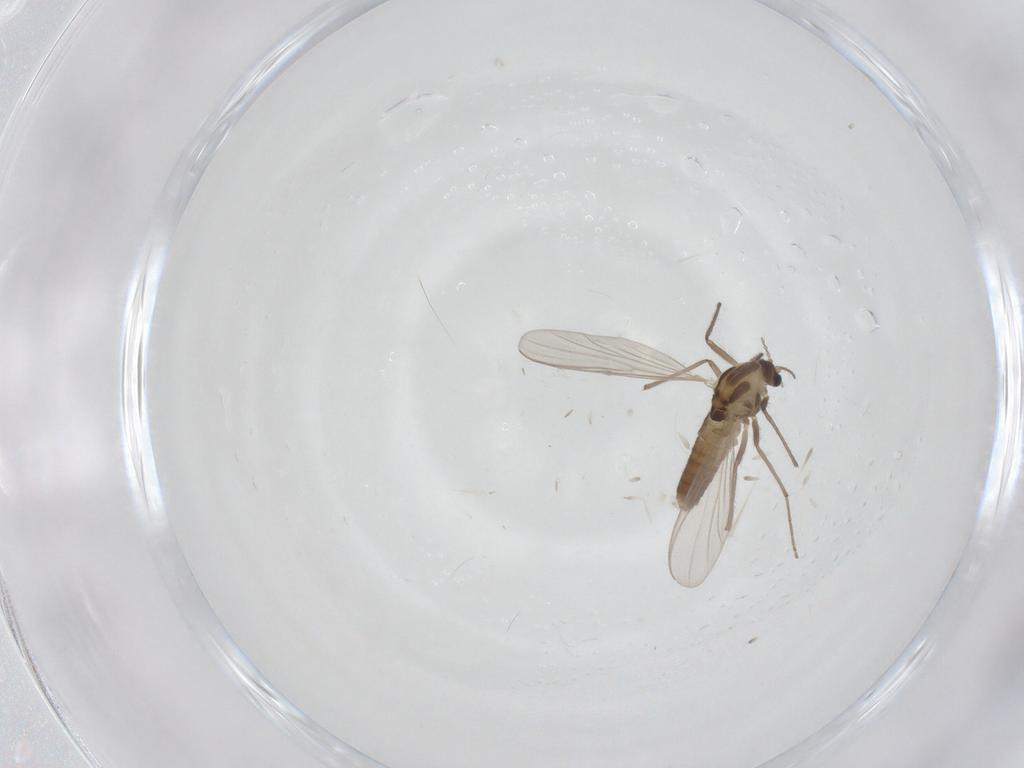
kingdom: Animalia
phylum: Arthropoda
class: Insecta
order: Diptera
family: Chironomidae
